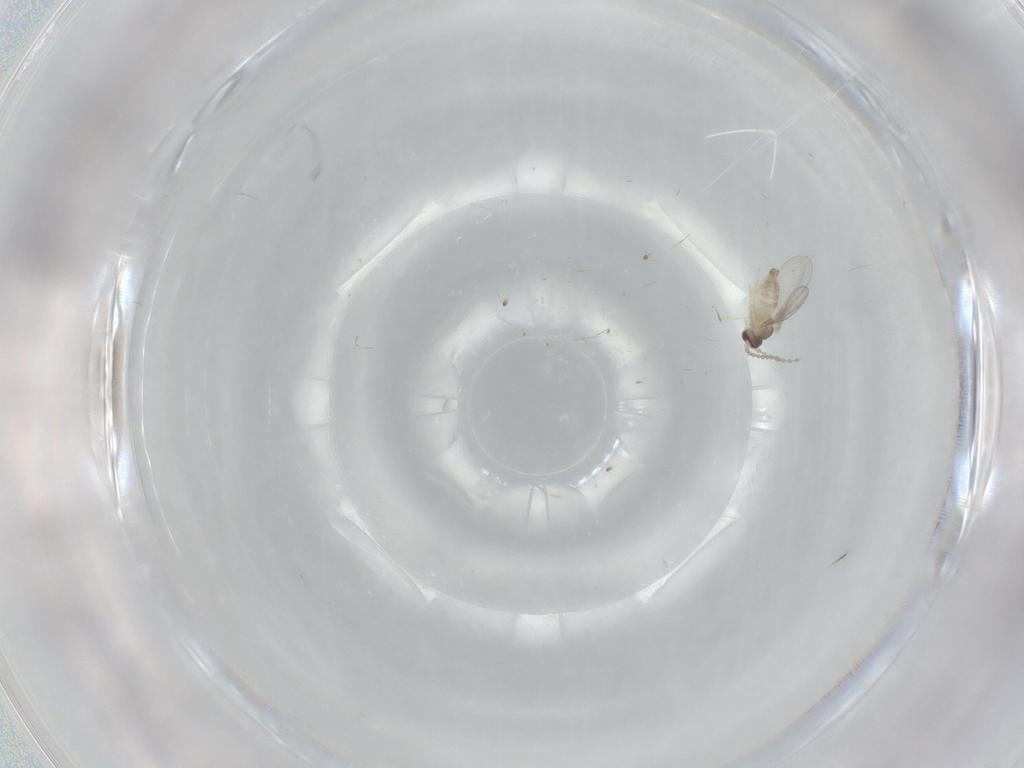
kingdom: Animalia
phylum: Arthropoda
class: Insecta
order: Diptera
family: Cecidomyiidae
